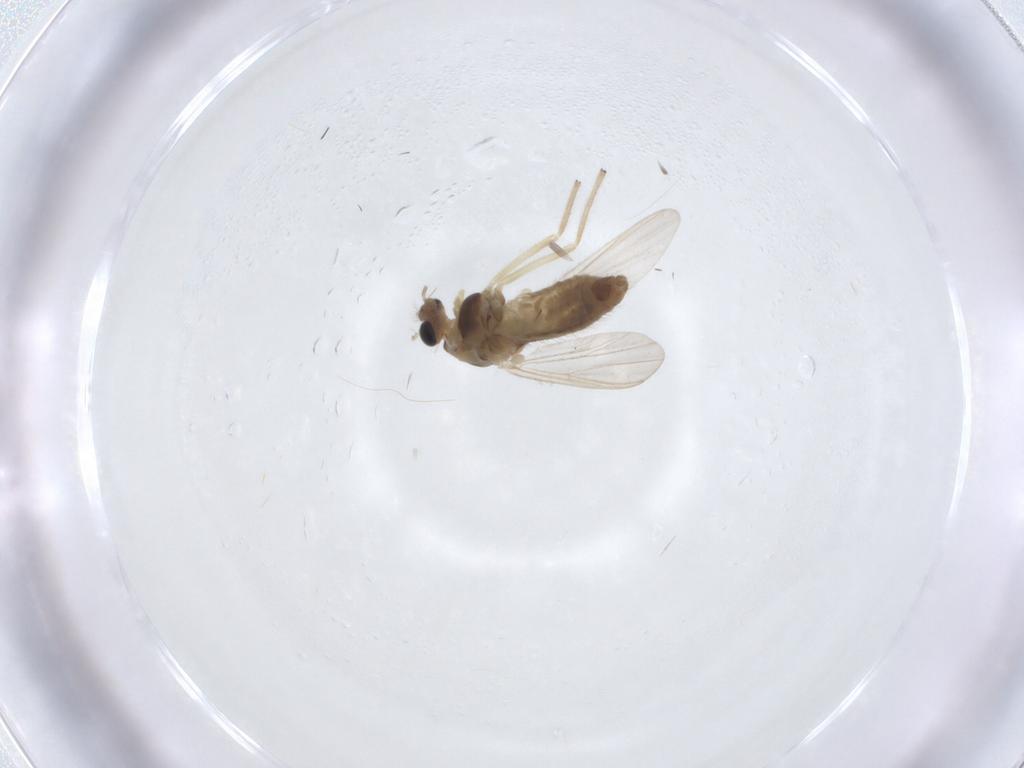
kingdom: Animalia
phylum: Arthropoda
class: Insecta
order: Diptera
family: Chironomidae
